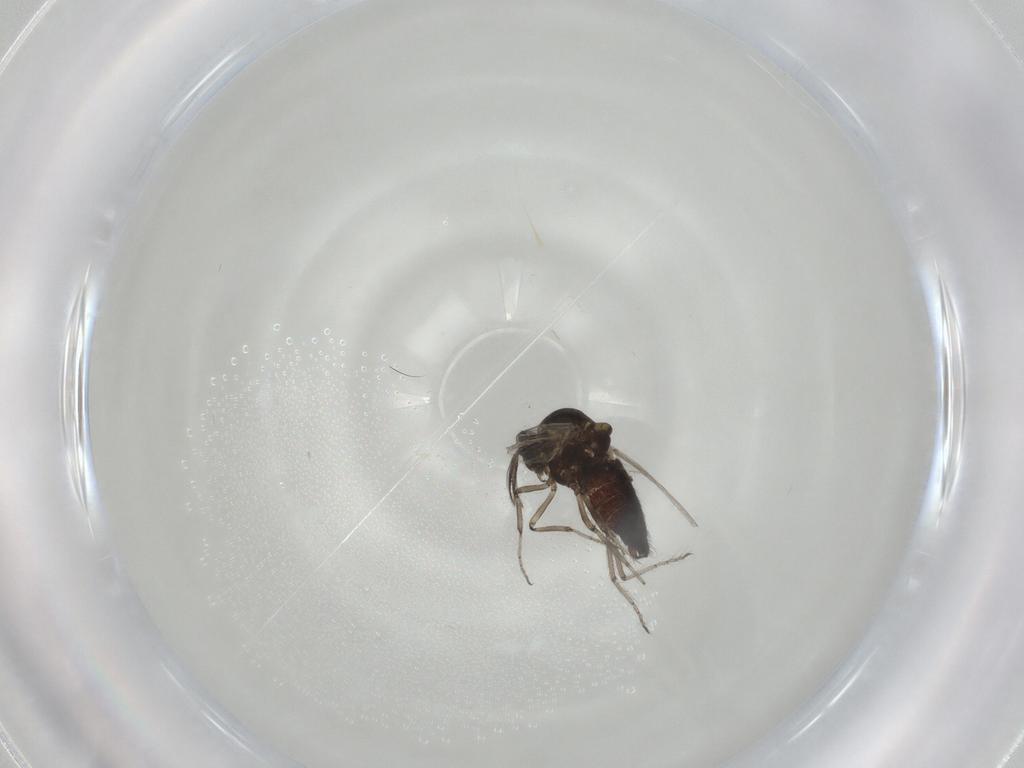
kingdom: Animalia
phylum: Arthropoda
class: Insecta
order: Diptera
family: Ceratopogonidae
